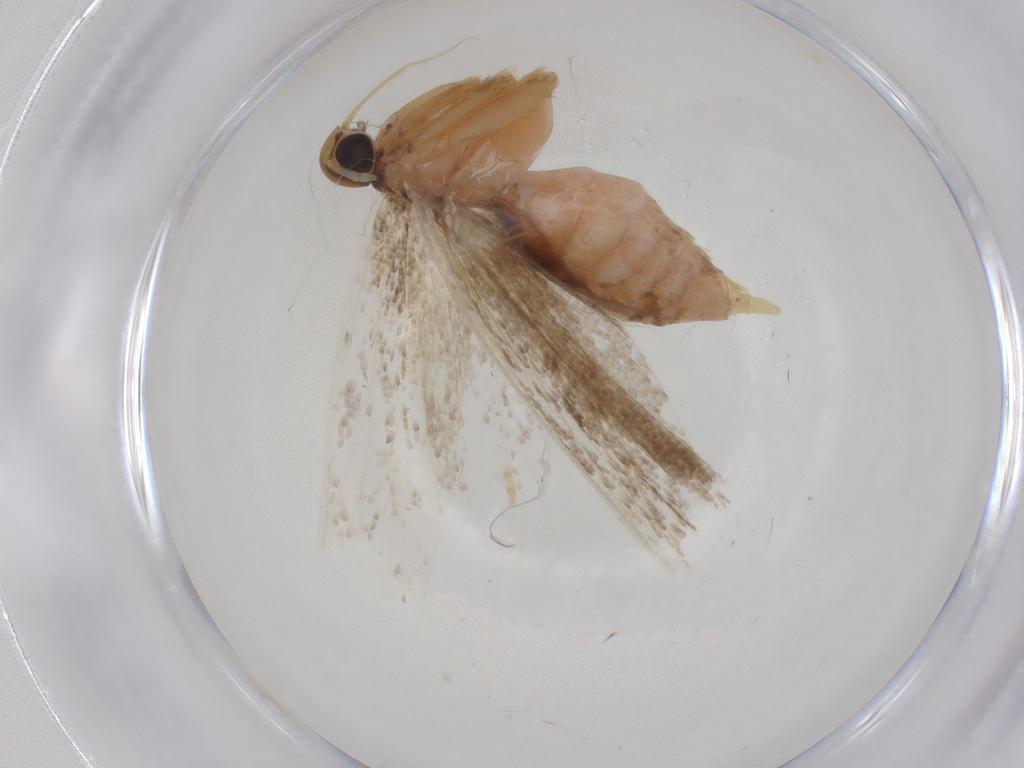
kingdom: Animalia
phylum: Arthropoda
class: Insecta
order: Lepidoptera
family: Gelechiidae
